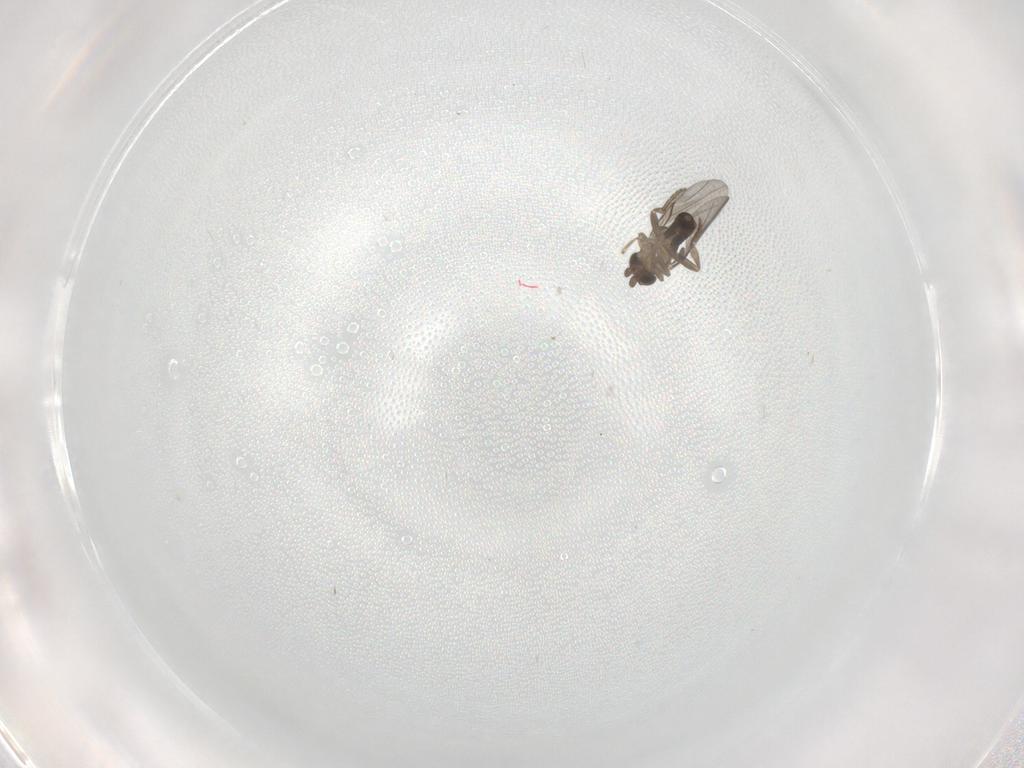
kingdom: Animalia
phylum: Arthropoda
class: Insecta
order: Diptera
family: Phoridae
